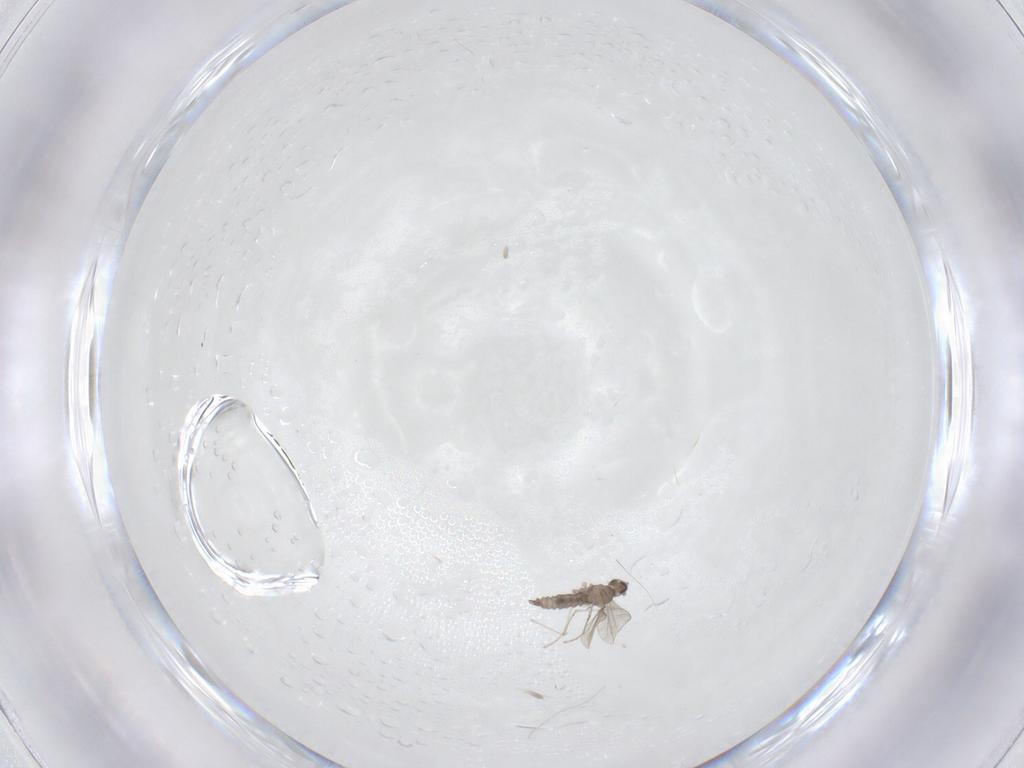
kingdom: Animalia
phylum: Arthropoda
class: Insecta
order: Diptera
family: Cecidomyiidae
